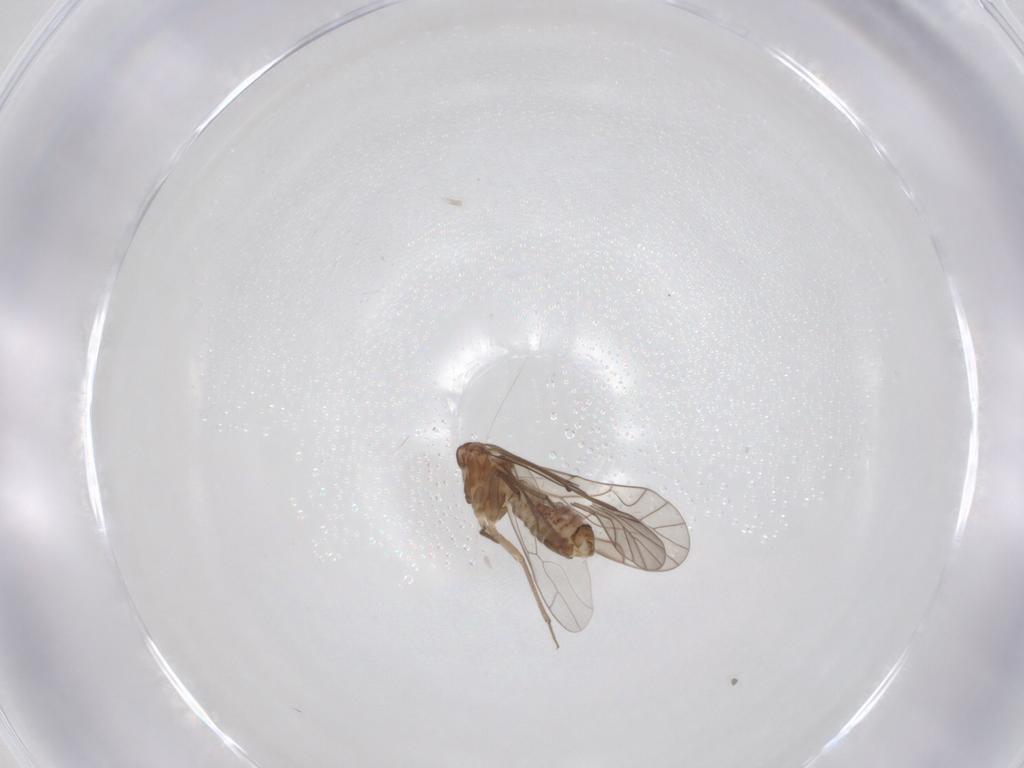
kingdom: Animalia
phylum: Arthropoda
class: Insecta
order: Psocodea
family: Lachesillidae
